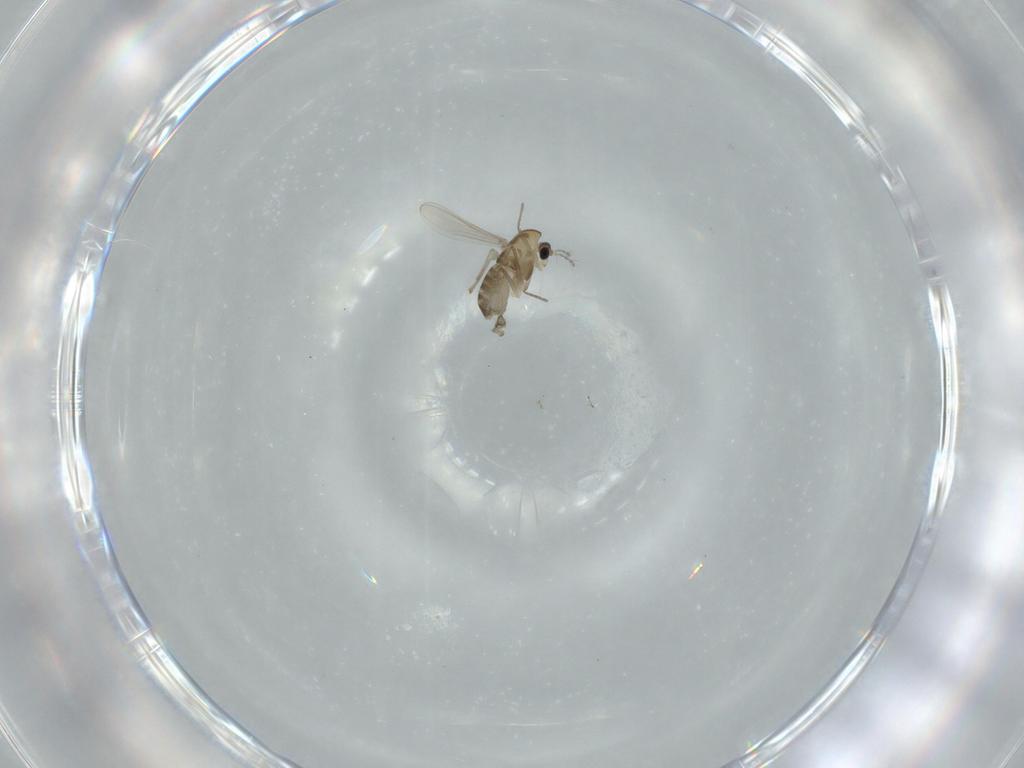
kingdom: Animalia
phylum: Arthropoda
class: Insecta
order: Diptera
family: Chironomidae
